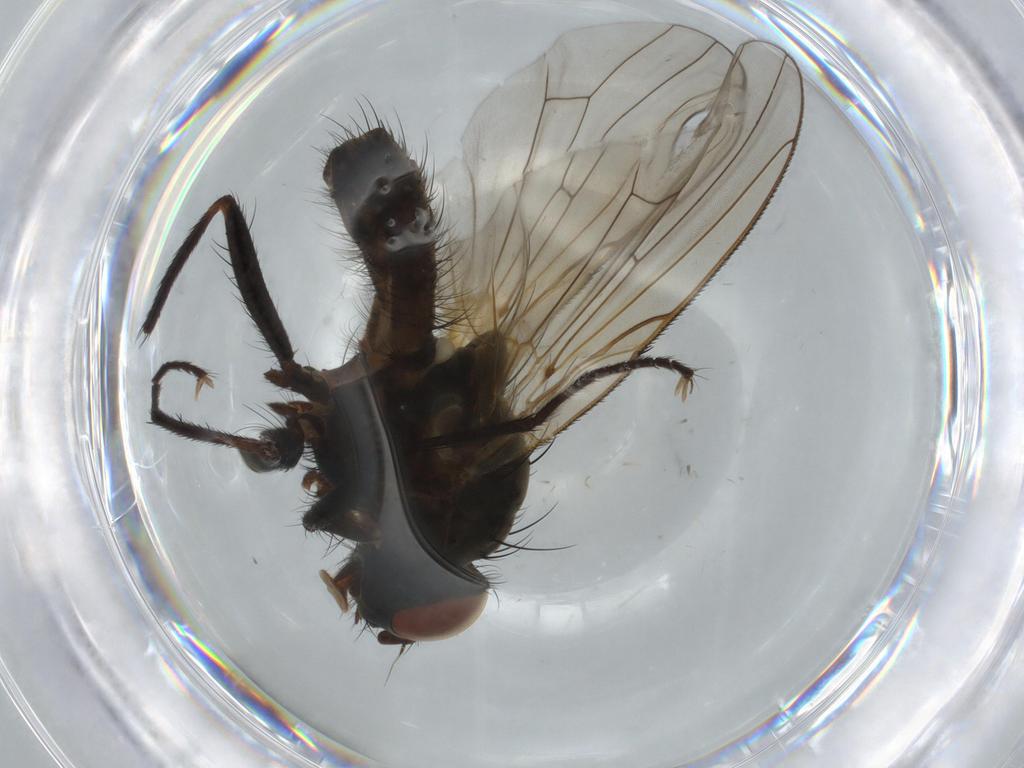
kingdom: Animalia
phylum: Arthropoda
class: Insecta
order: Diptera
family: Anthomyiidae
